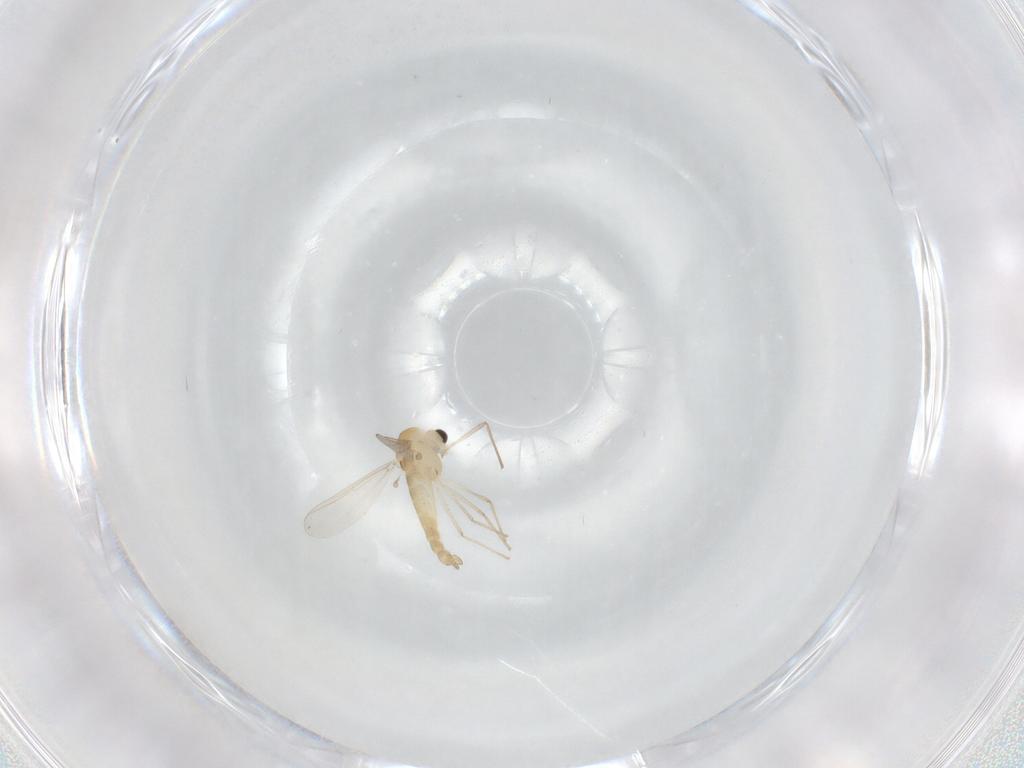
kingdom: Animalia
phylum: Arthropoda
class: Insecta
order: Diptera
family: Chironomidae
